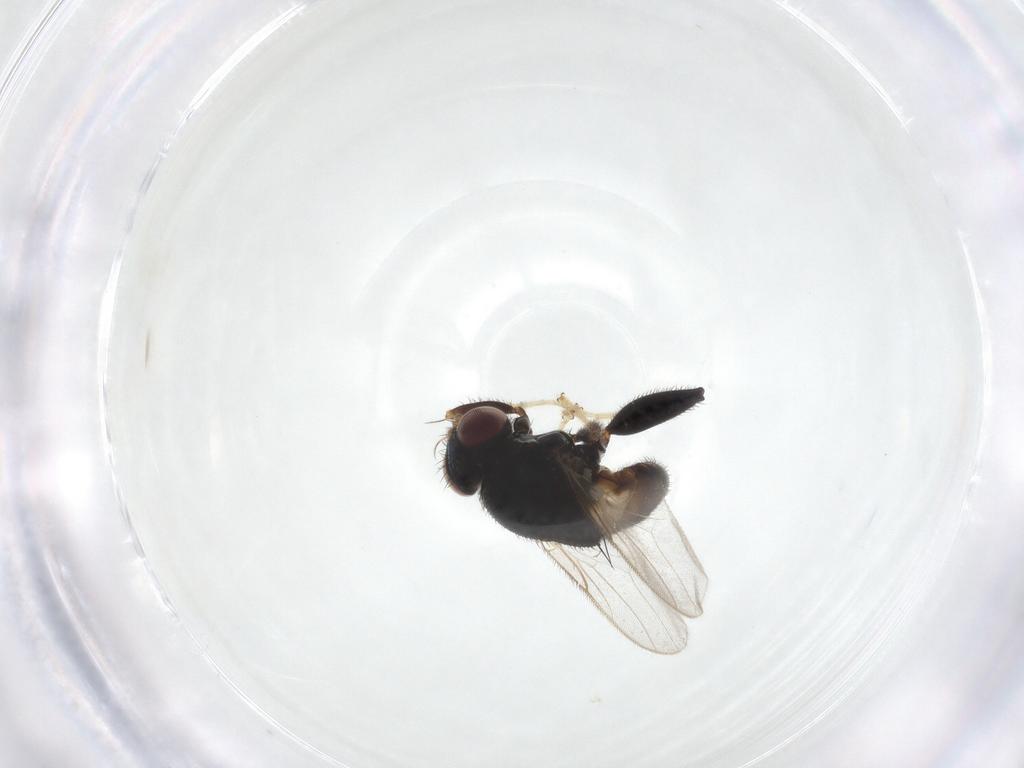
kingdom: Animalia
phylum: Arthropoda
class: Insecta
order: Diptera
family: Chloropidae
